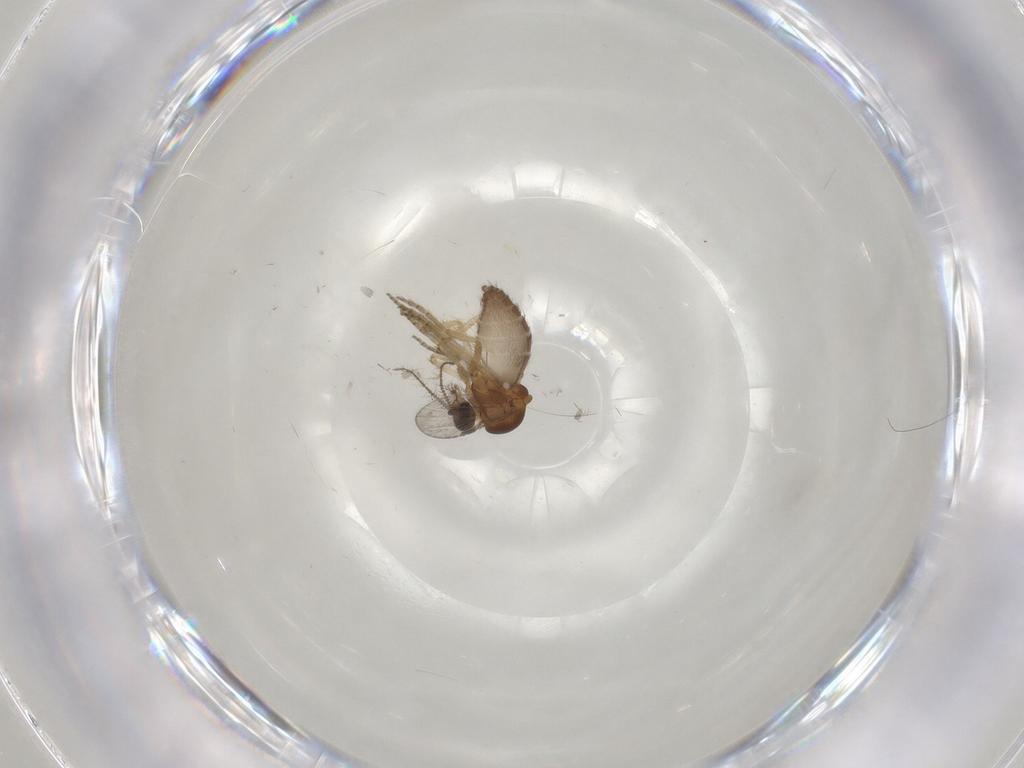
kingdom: Animalia
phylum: Arthropoda
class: Insecta
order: Diptera
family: Ceratopogonidae
